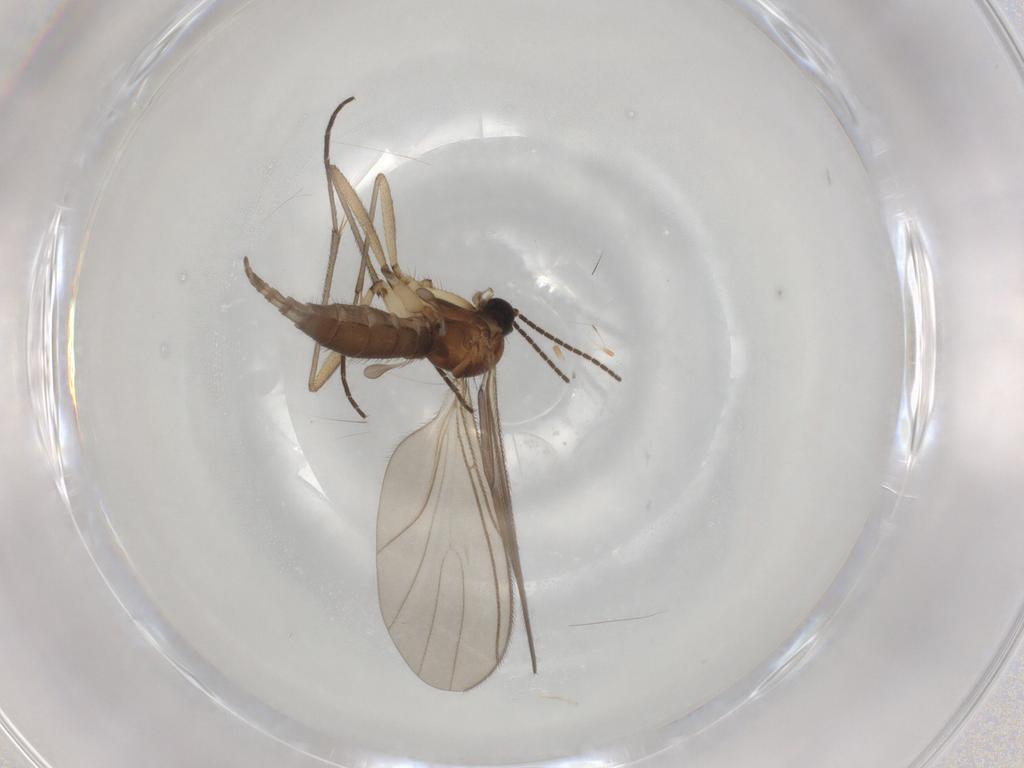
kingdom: Animalia
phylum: Arthropoda
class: Insecta
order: Diptera
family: Sciaridae
